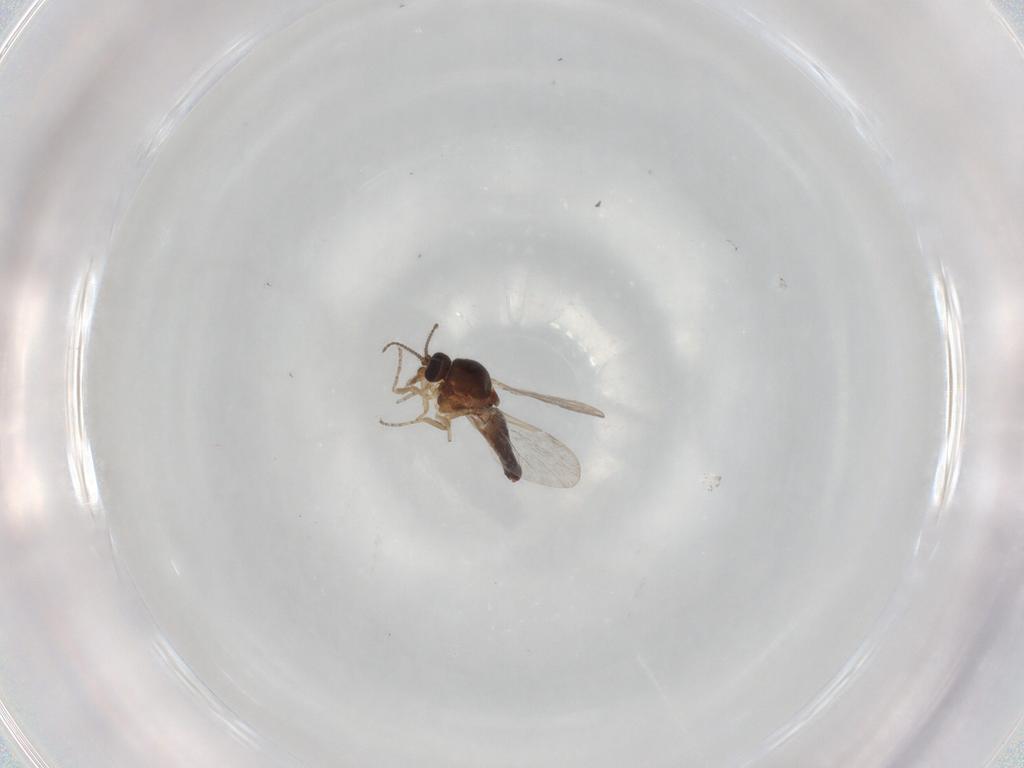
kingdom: Animalia
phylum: Arthropoda
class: Insecta
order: Diptera
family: Ceratopogonidae
